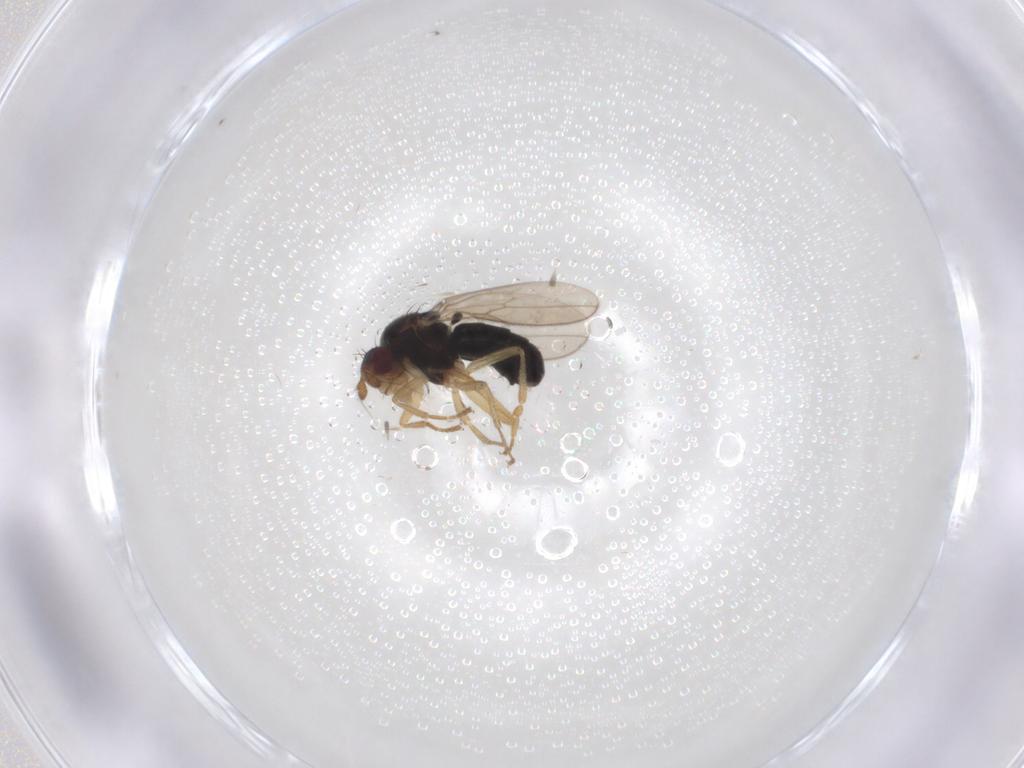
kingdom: Animalia
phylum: Arthropoda
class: Insecta
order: Diptera
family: Sphaeroceridae
